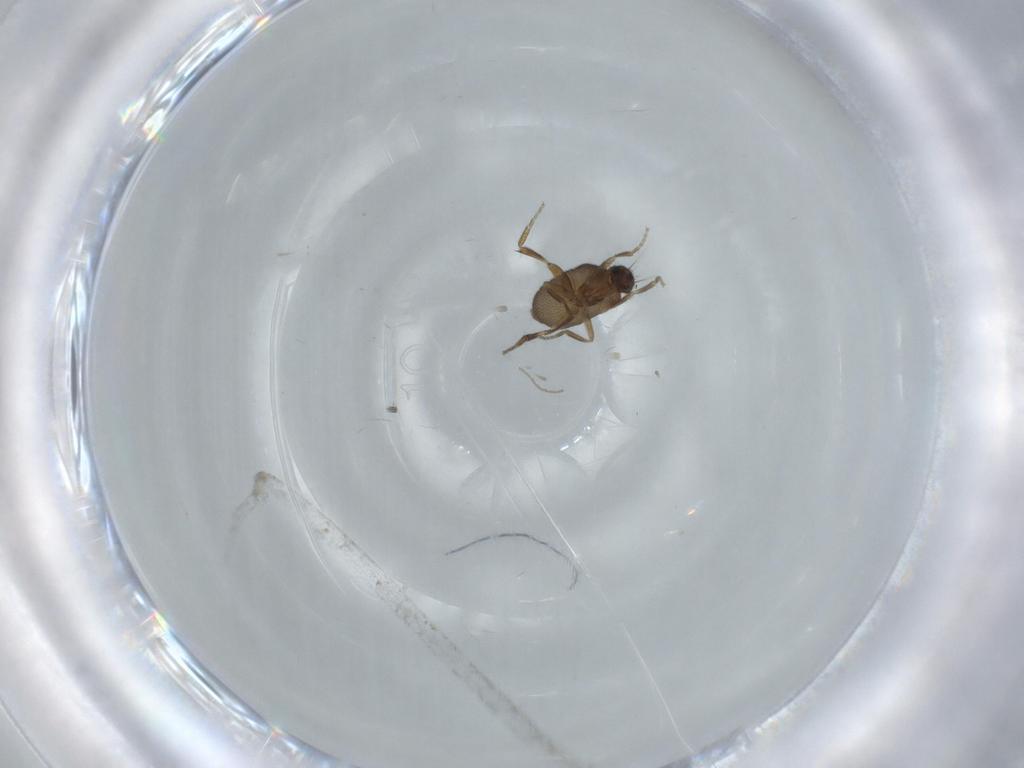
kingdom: Animalia
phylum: Arthropoda
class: Insecta
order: Diptera
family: Phoridae
